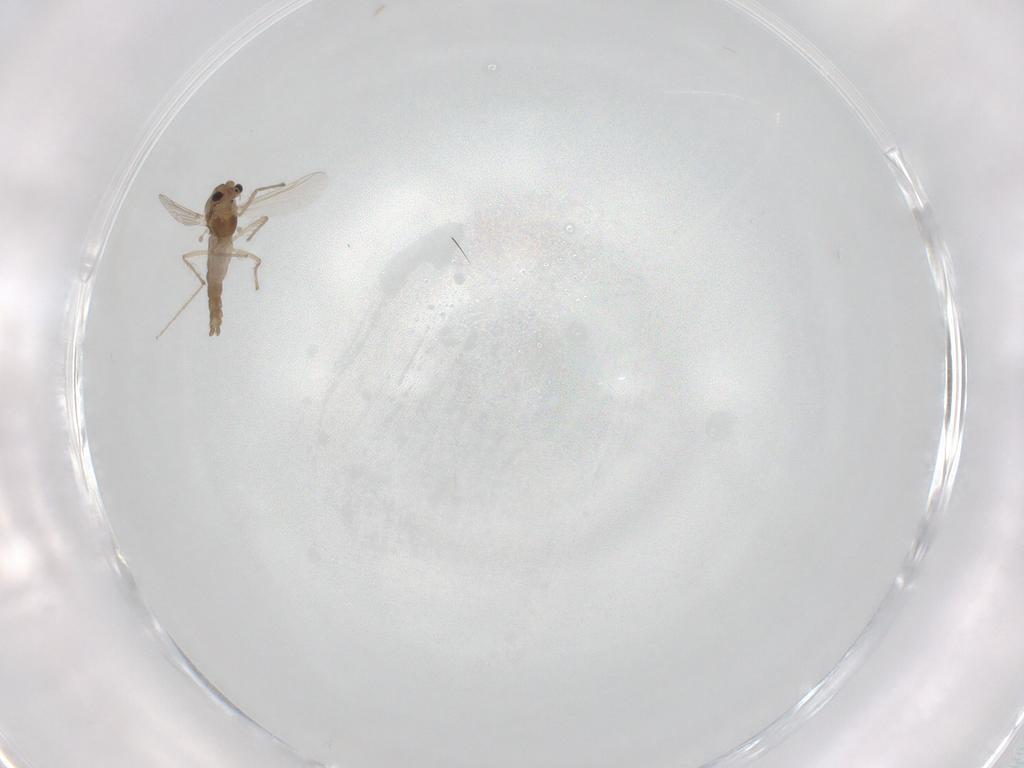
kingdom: Animalia
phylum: Arthropoda
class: Insecta
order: Diptera
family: Chironomidae
